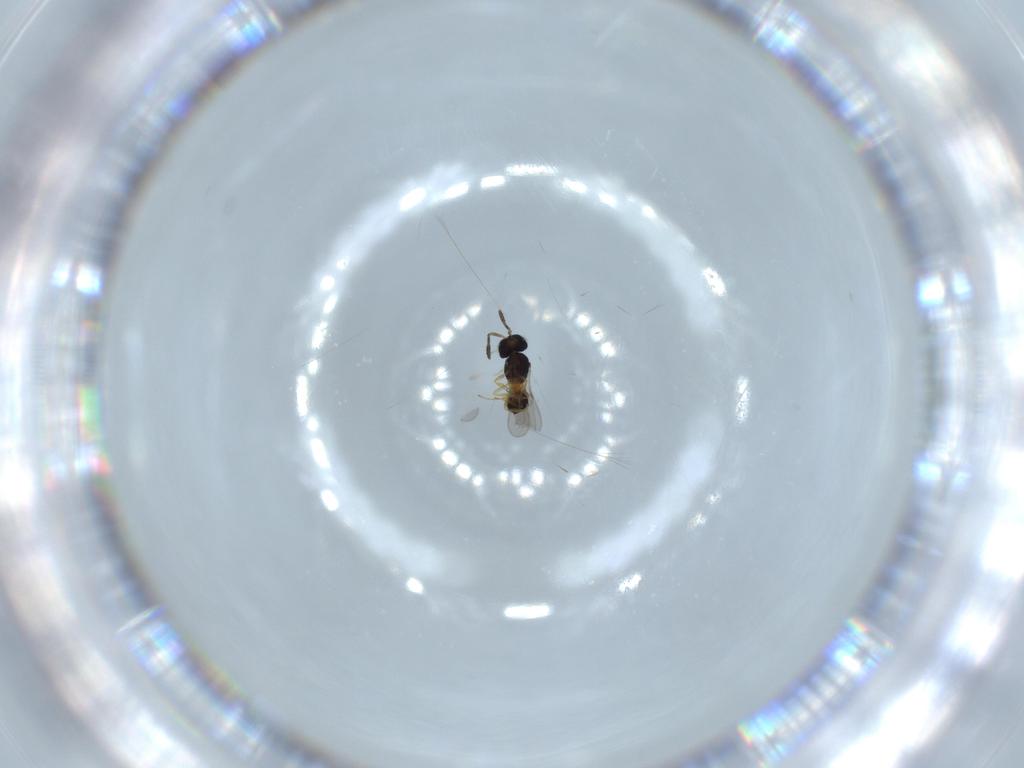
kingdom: Animalia
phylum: Arthropoda
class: Insecta
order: Hymenoptera
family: Scelionidae
